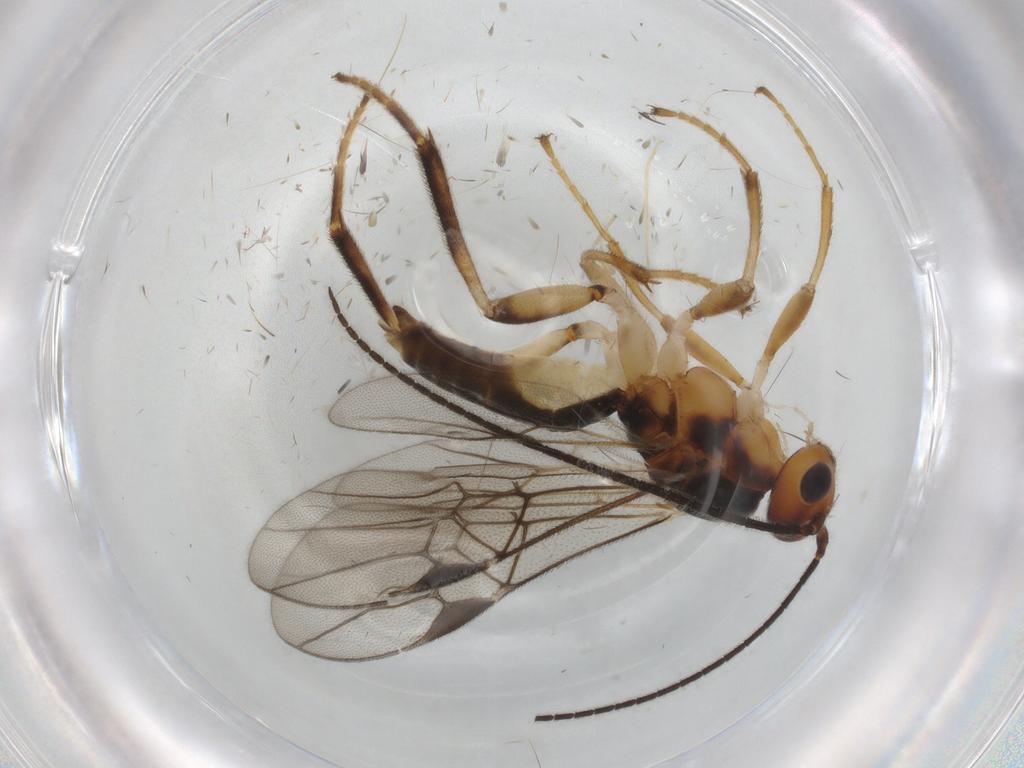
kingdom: Animalia
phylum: Arthropoda
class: Insecta
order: Hymenoptera
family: Braconidae
